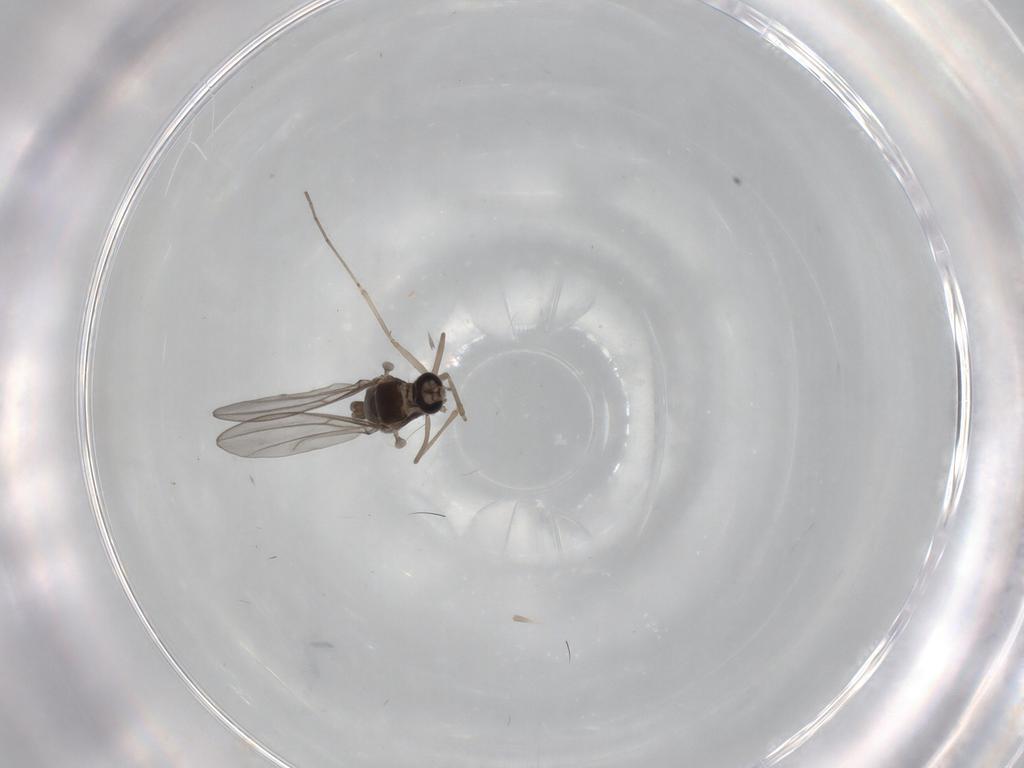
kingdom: Animalia
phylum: Arthropoda
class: Insecta
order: Diptera
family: Cecidomyiidae
